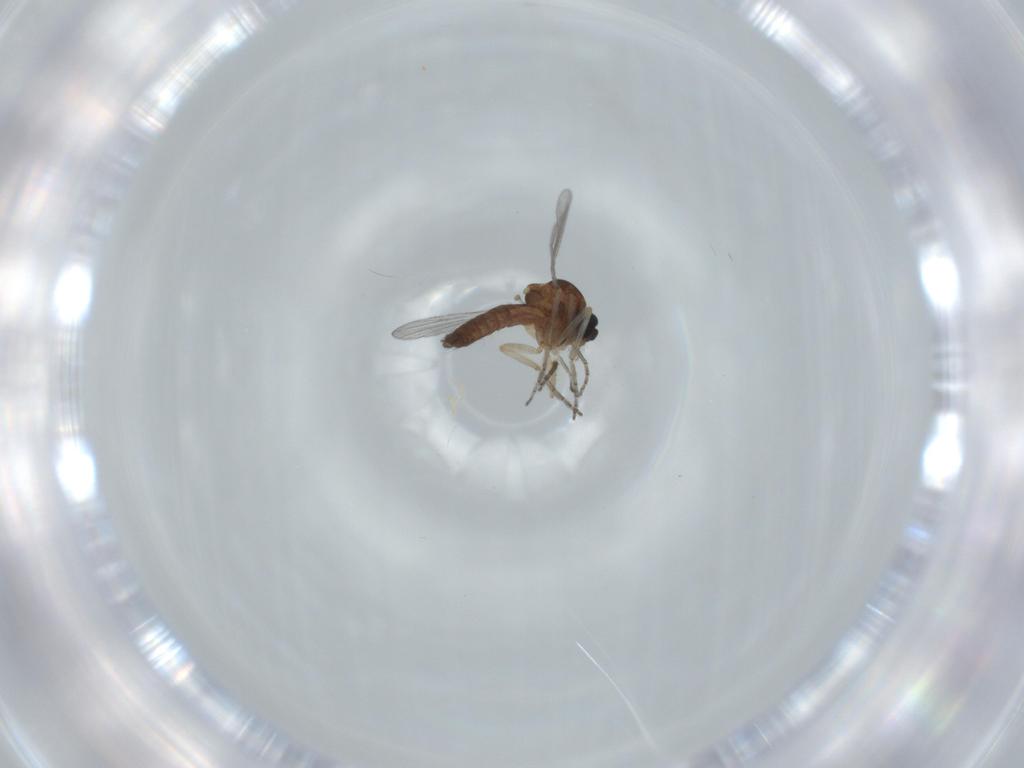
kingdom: Animalia
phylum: Arthropoda
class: Insecta
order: Diptera
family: Ceratopogonidae
